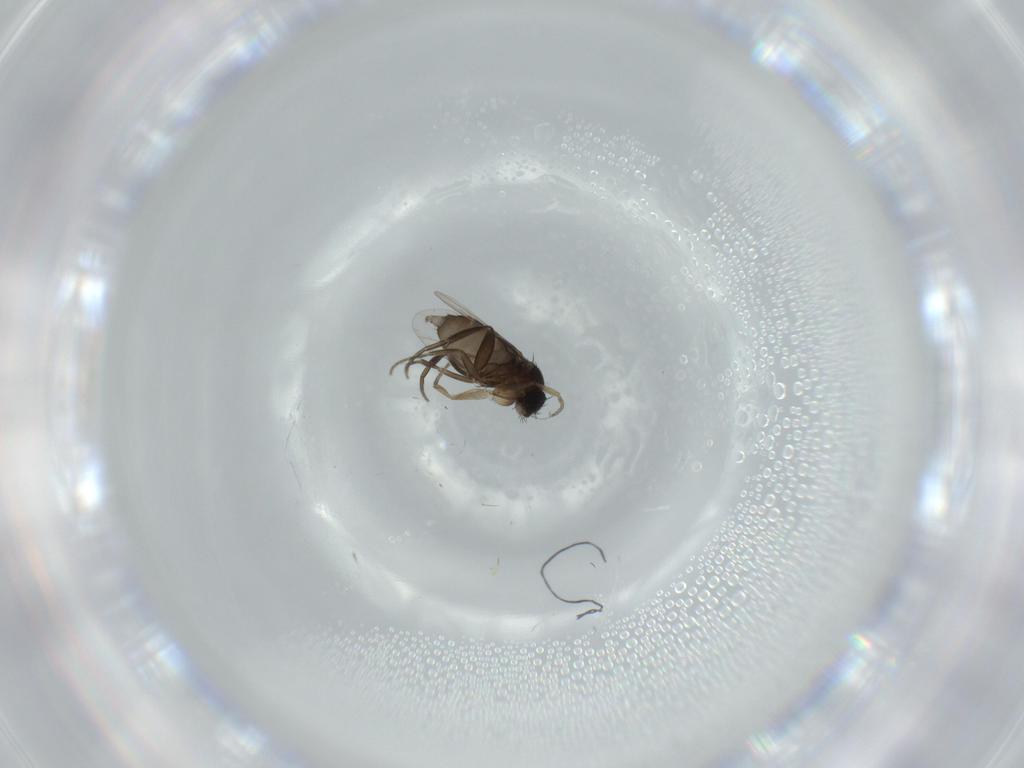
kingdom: Animalia
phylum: Arthropoda
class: Insecta
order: Diptera
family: Phoridae
